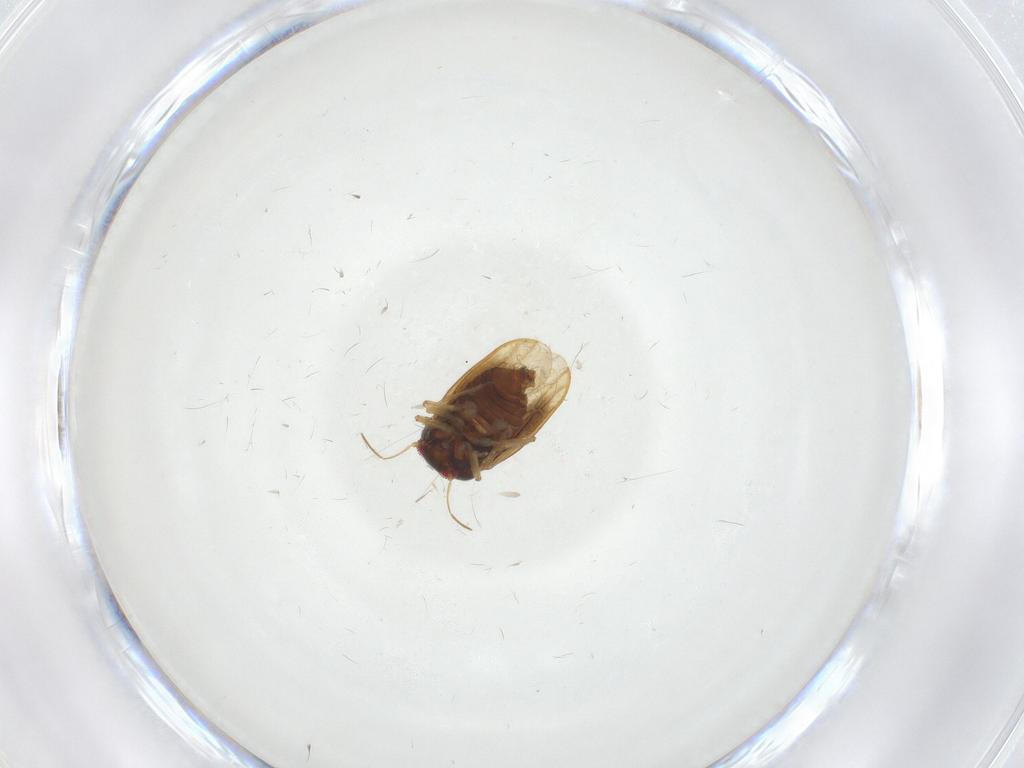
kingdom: Animalia
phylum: Arthropoda
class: Insecta
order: Hemiptera
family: Schizopteridae
